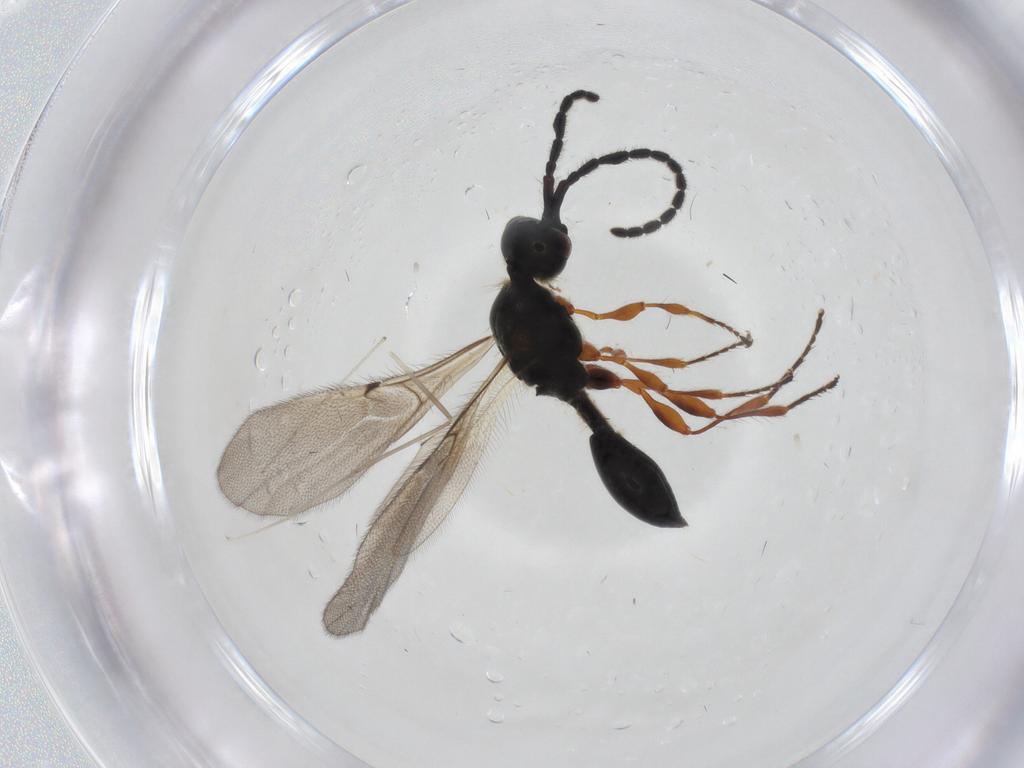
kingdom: Animalia
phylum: Arthropoda
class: Insecta
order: Hymenoptera
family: Diapriidae
